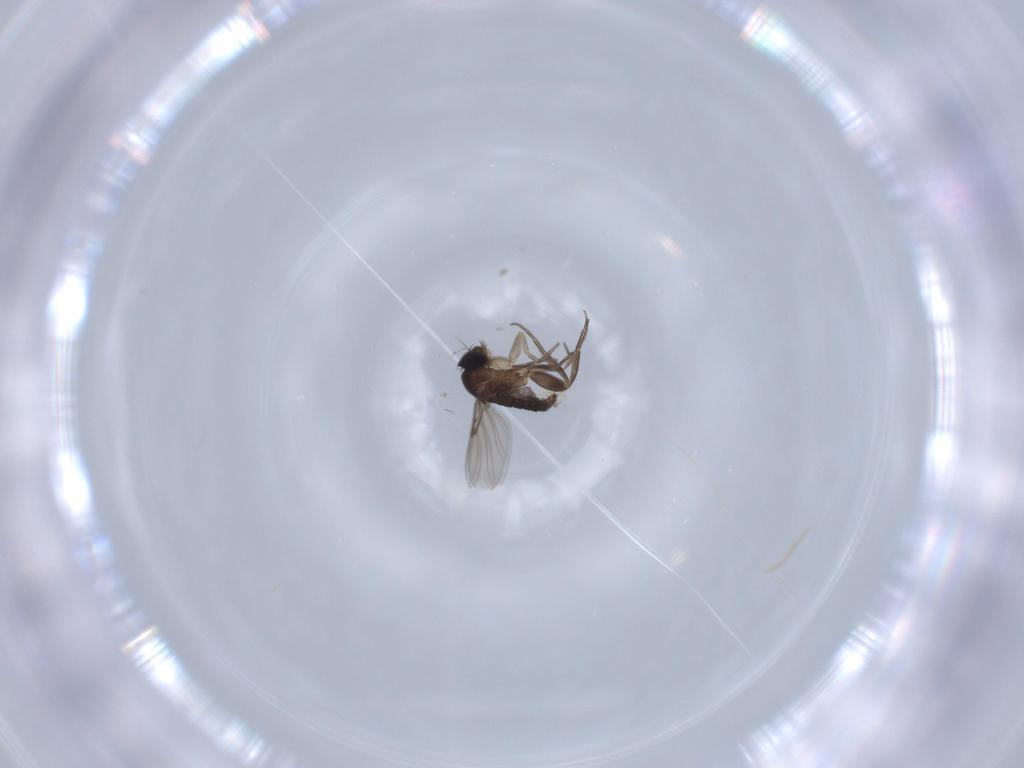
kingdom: Animalia
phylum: Arthropoda
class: Insecta
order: Diptera
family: Phoridae
